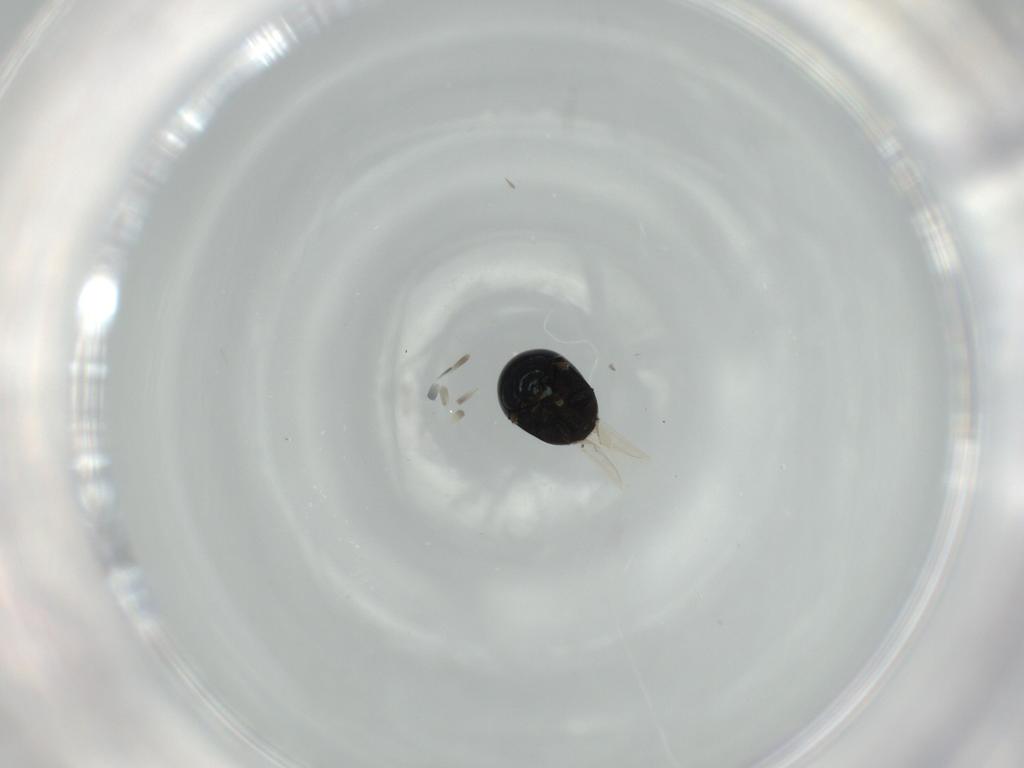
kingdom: Animalia
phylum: Arthropoda
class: Insecta
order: Coleoptera
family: Cybocephalidae
